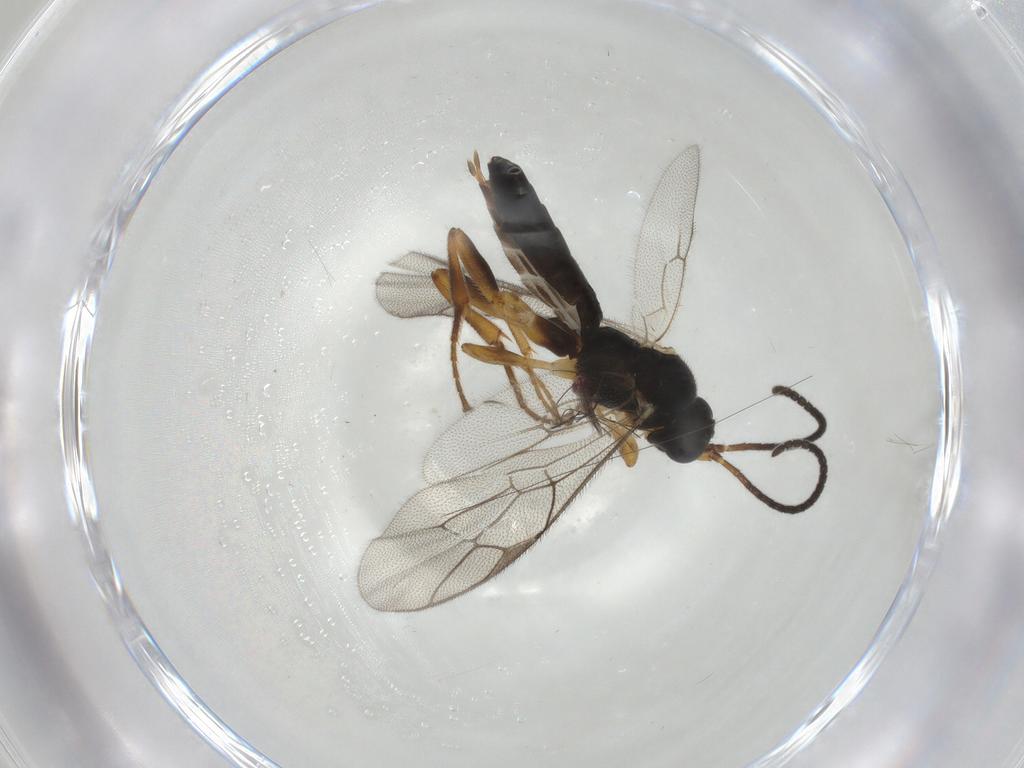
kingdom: Animalia
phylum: Arthropoda
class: Insecta
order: Hymenoptera
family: Ichneumonidae
